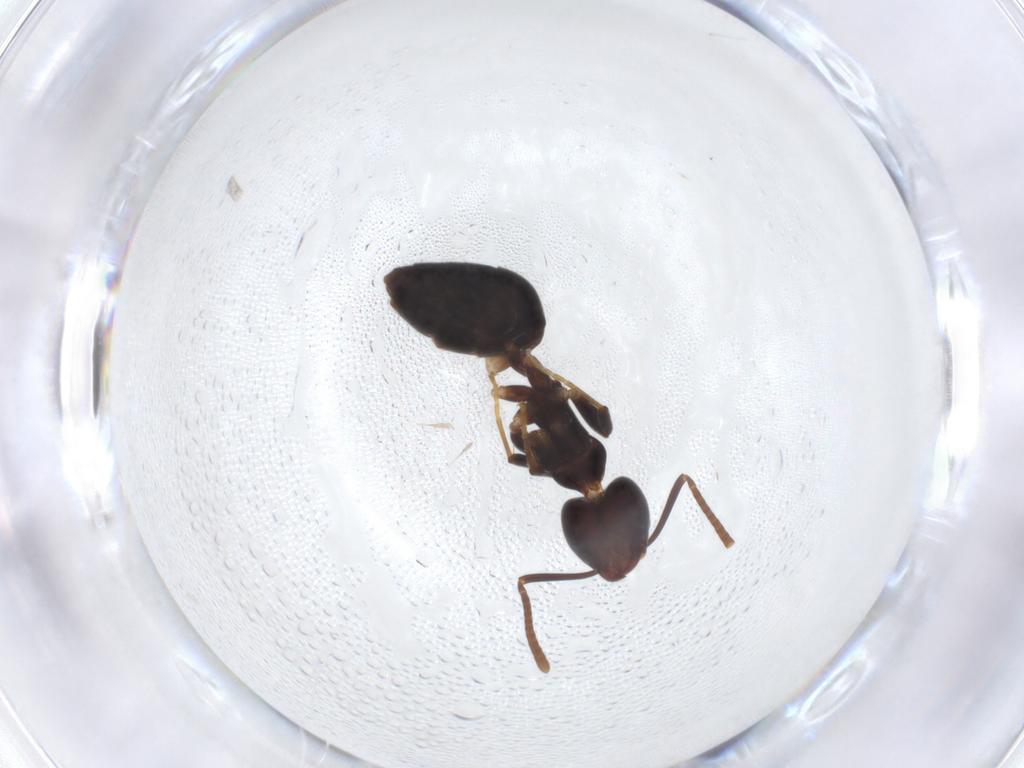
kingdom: Animalia
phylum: Arthropoda
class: Insecta
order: Hymenoptera
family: Formicidae
